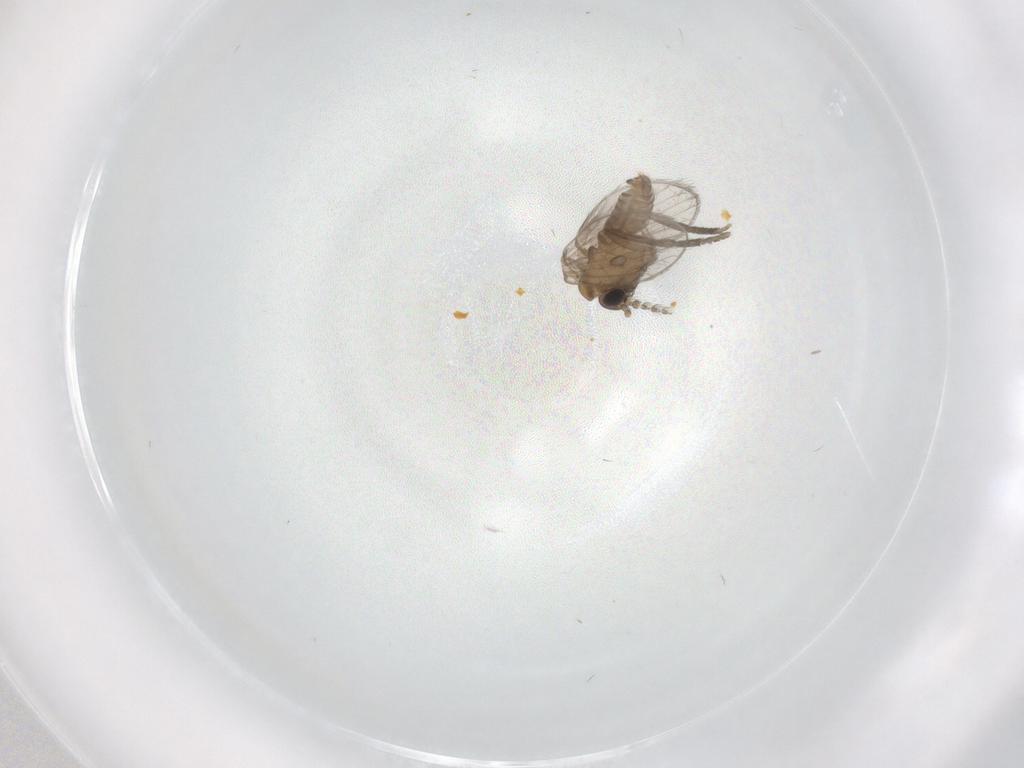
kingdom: Animalia
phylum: Arthropoda
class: Insecta
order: Diptera
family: Psychodidae
